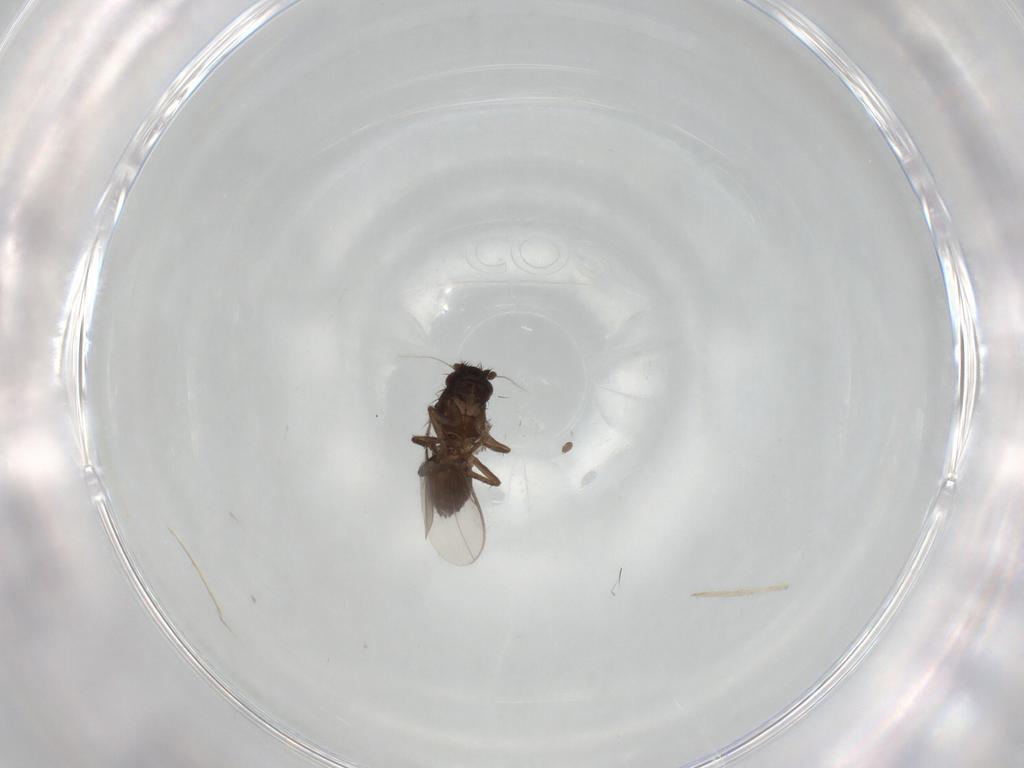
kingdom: Animalia
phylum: Arthropoda
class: Insecta
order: Diptera
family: Sphaeroceridae
